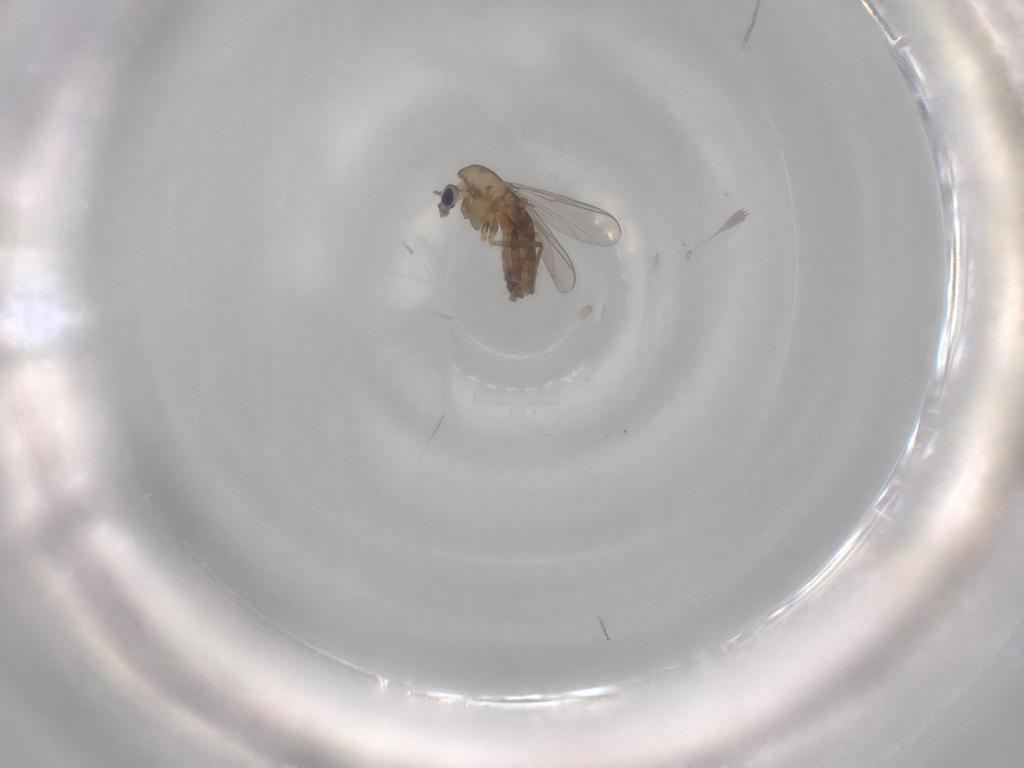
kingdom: Animalia
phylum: Arthropoda
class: Insecta
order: Diptera
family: Chironomidae
